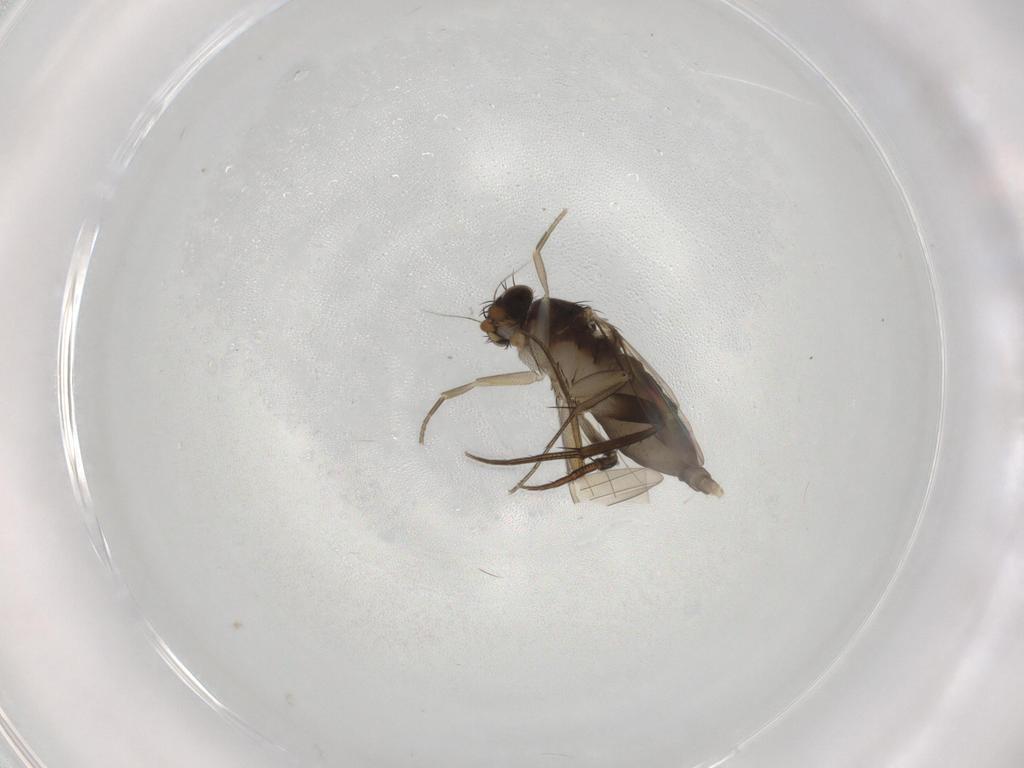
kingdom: Animalia
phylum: Arthropoda
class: Insecta
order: Diptera
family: Phoridae
